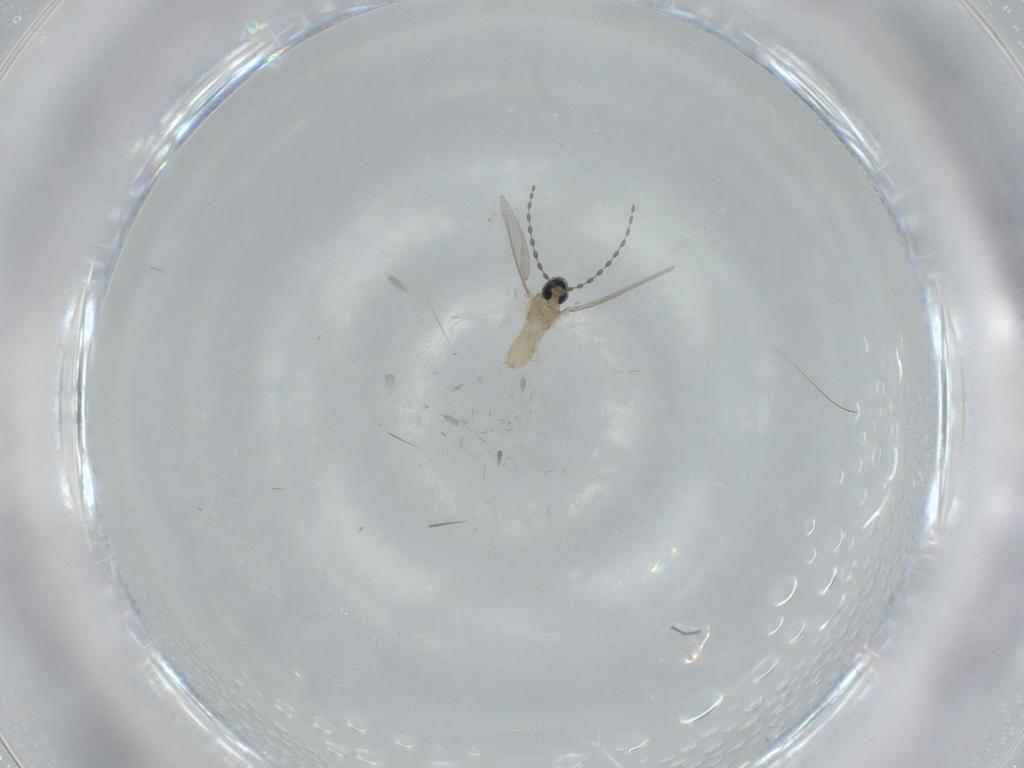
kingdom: Animalia
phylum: Arthropoda
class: Insecta
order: Diptera
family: Cecidomyiidae
